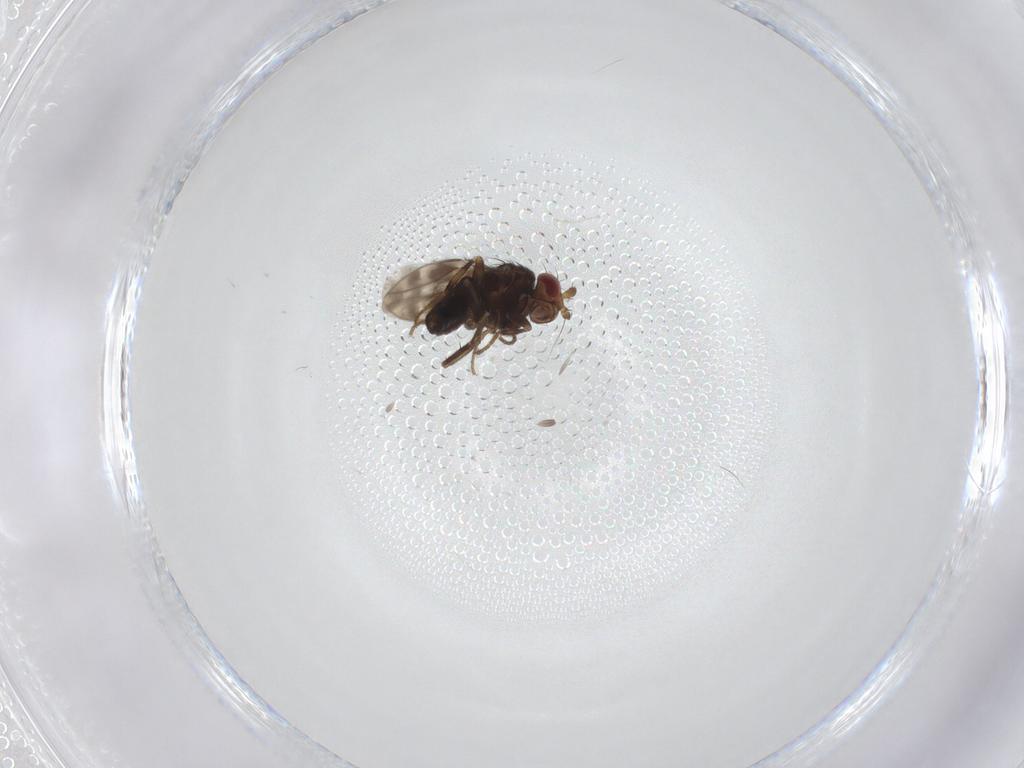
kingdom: Animalia
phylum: Arthropoda
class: Insecta
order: Diptera
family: Sphaeroceridae
